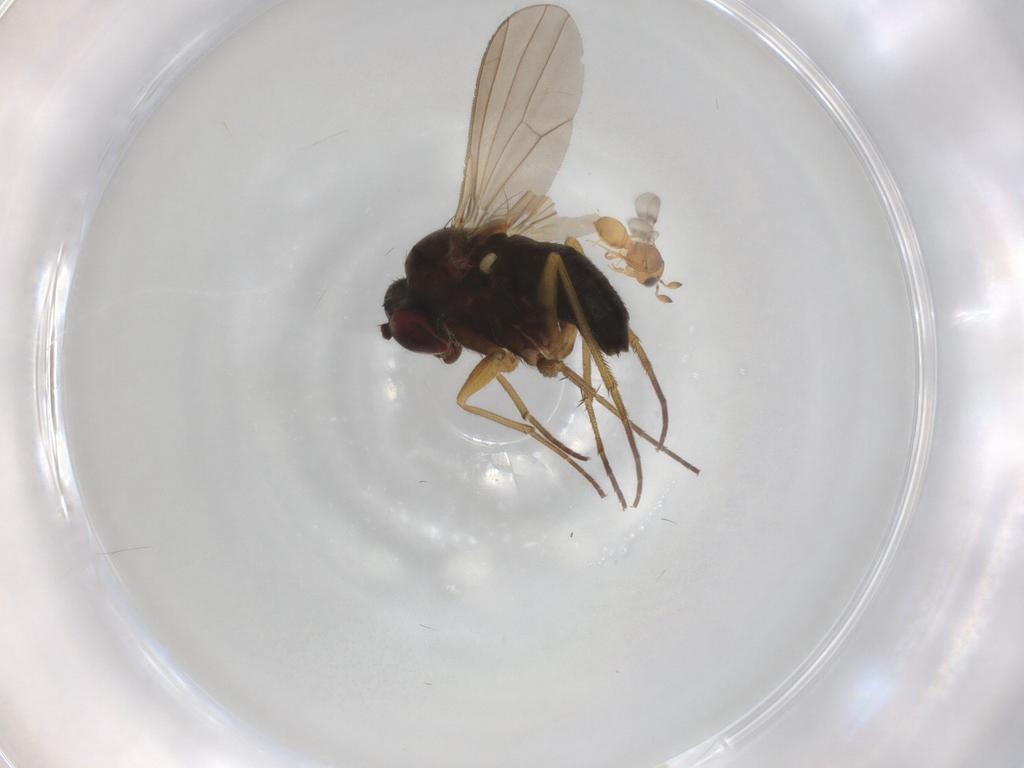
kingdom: Animalia
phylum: Arthropoda
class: Insecta
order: Diptera
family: Chloropidae
